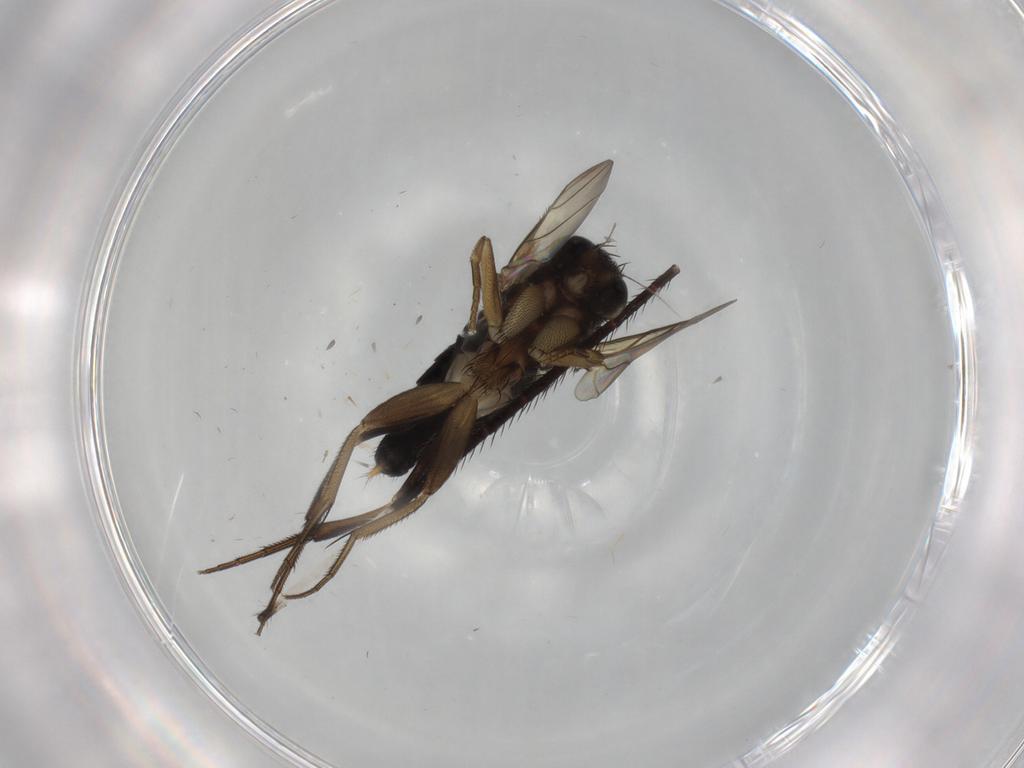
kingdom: Animalia
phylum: Arthropoda
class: Insecta
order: Diptera
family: Phoridae
